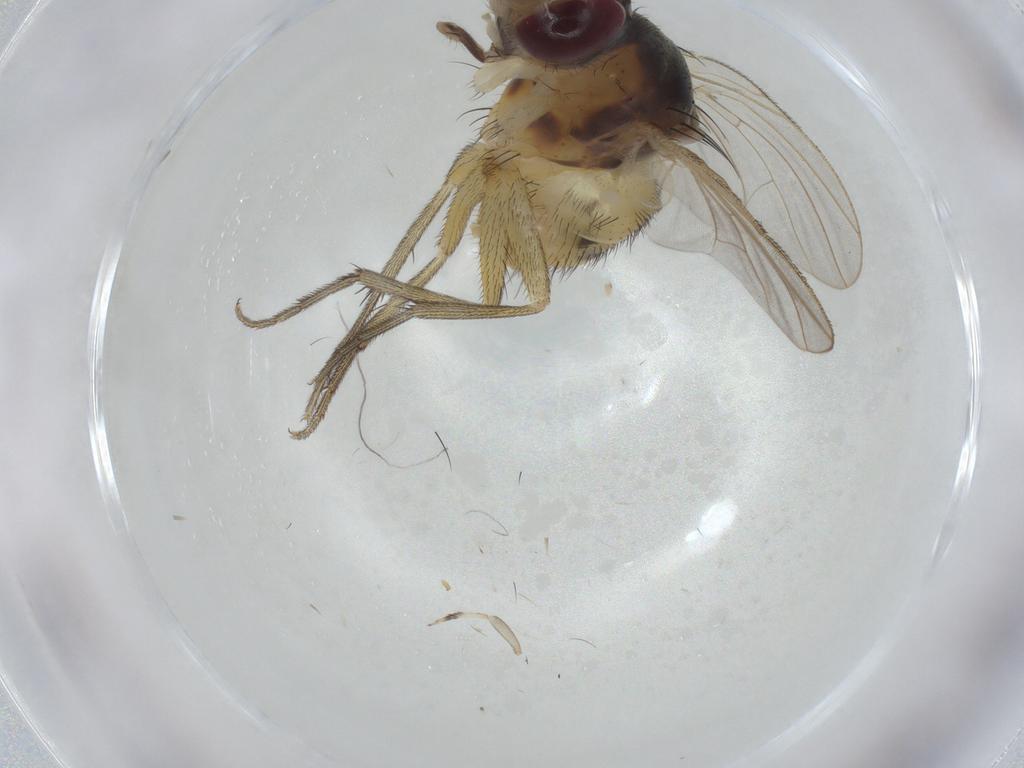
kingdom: Animalia
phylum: Arthropoda
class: Insecta
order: Diptera
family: Muscidae
